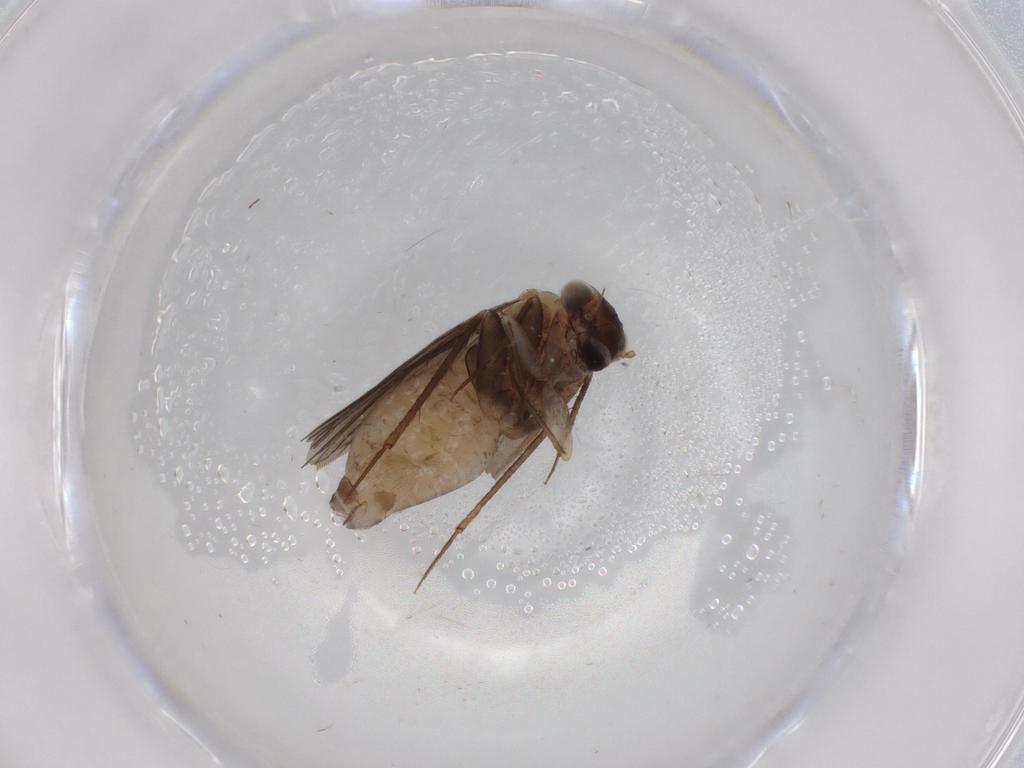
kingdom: Animalia
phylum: Arthropoda
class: Insecta
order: Psocodea
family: Lepidopsocidae
